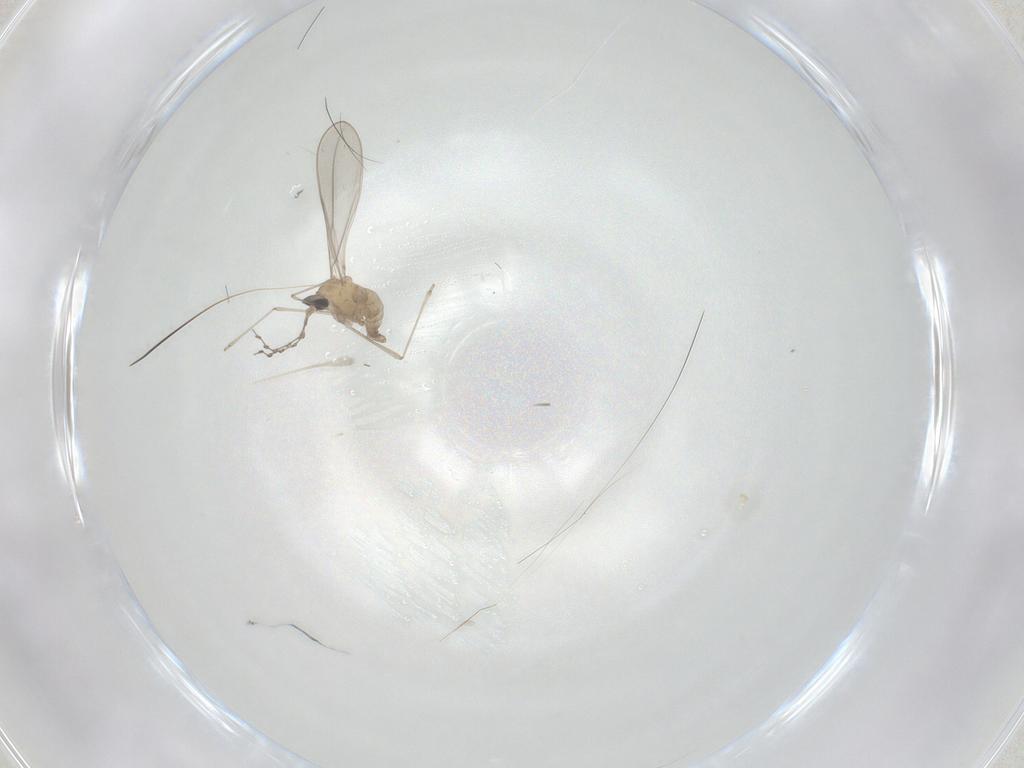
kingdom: Animalia
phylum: Arthropoda
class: Insecta
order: Diptera
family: Cecidomyiidae
